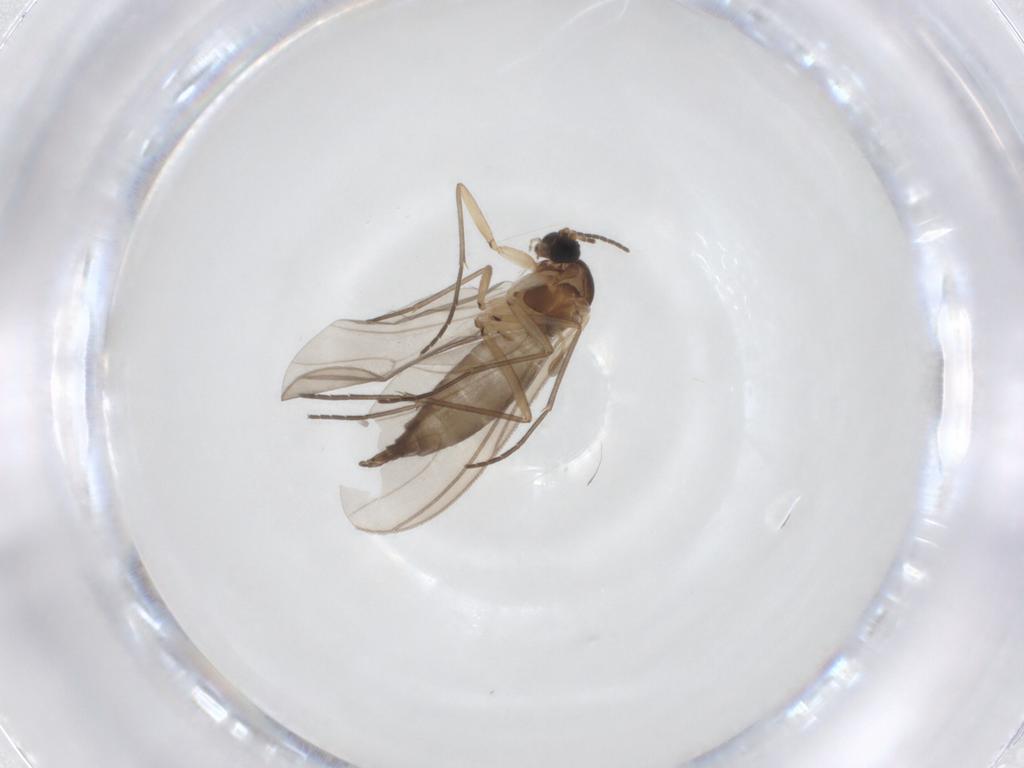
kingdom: Animalia
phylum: Arthropoda
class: Insecta
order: Diptera
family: Sciaridae
